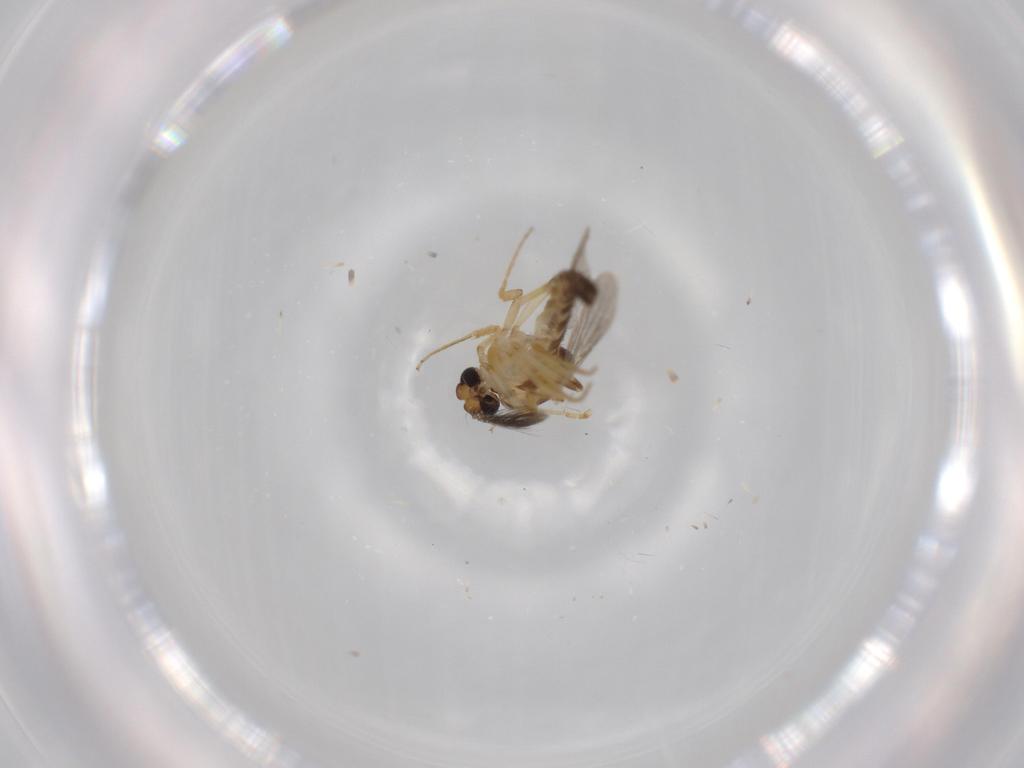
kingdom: Animalia
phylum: Arthropoda
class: Insecta
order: Diptera
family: Ceratopogonidae
